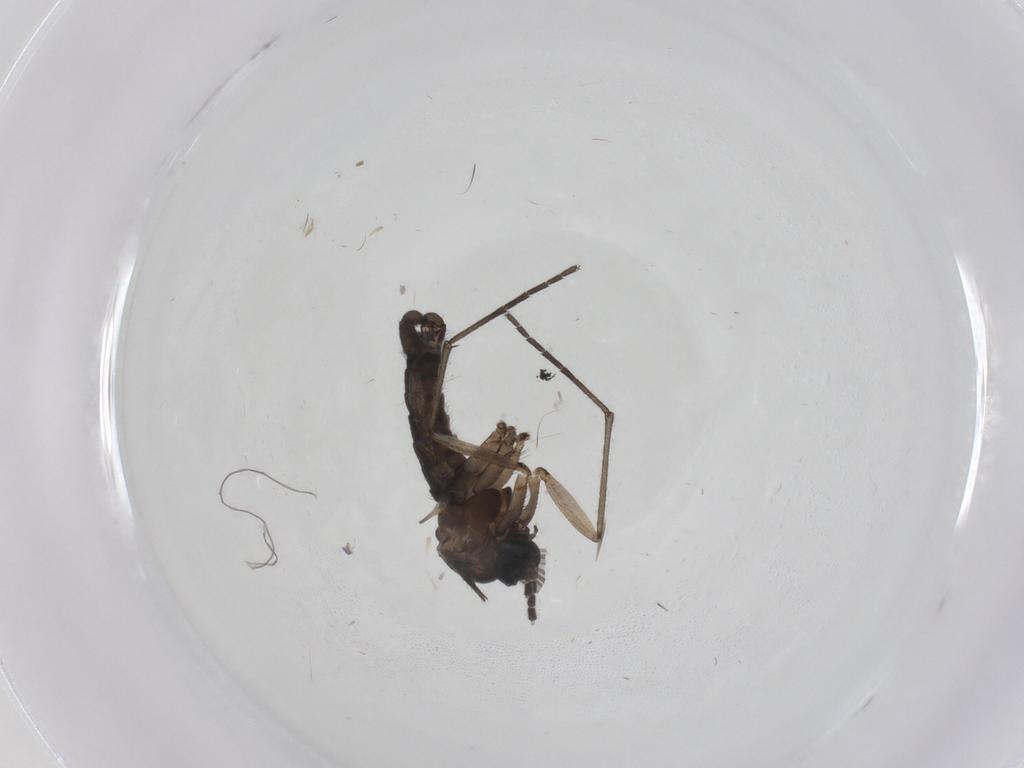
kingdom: Animalia
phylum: Arthropoda
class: Insecta
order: Diptera
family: Sciaridae
